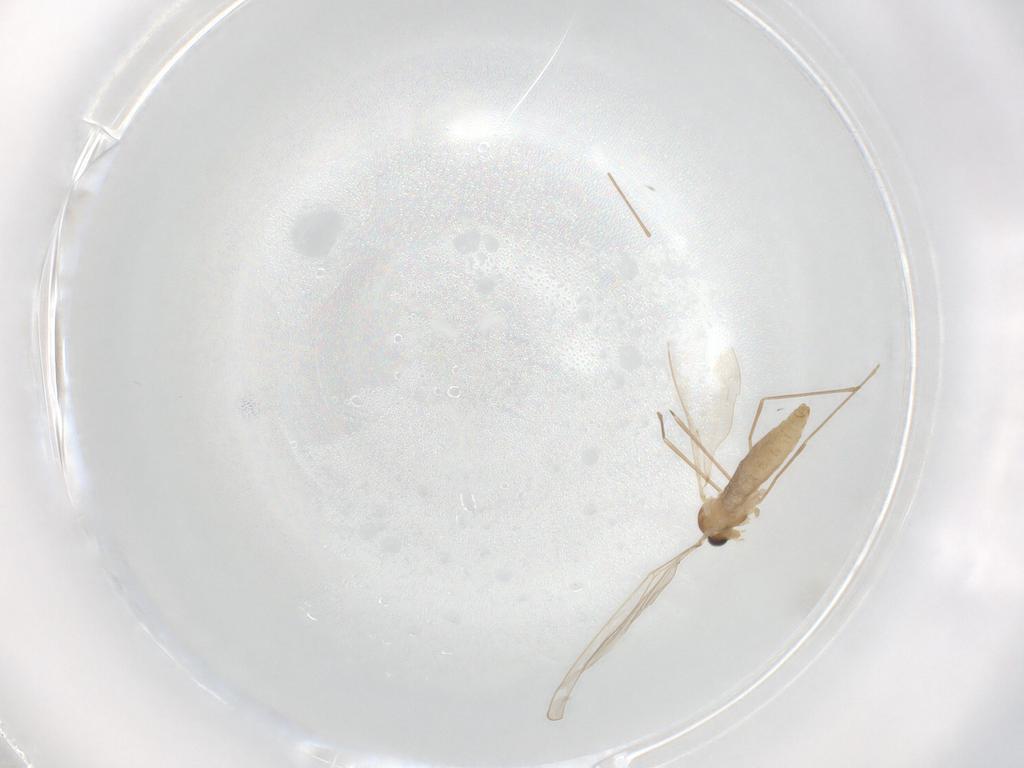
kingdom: Animalia
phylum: Arthropoda
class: Insecta
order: Diptera
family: Cecidomyiidae
